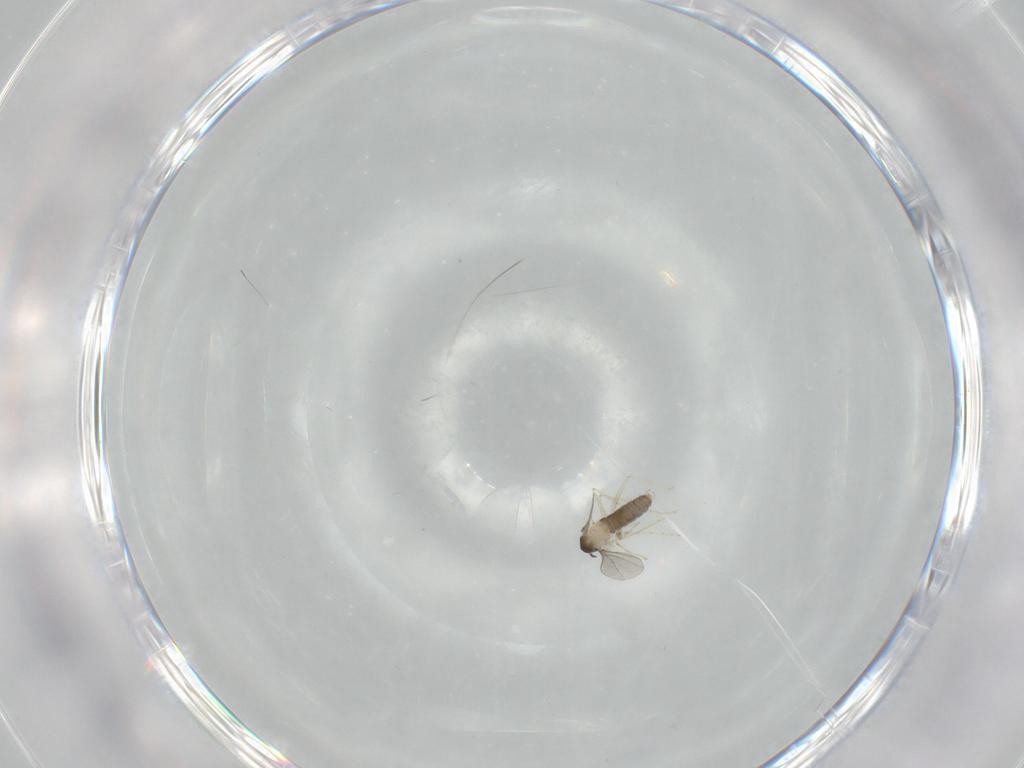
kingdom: Animalia
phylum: Arthropoda
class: Insecta
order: Diptera
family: Cecidomyiidae
